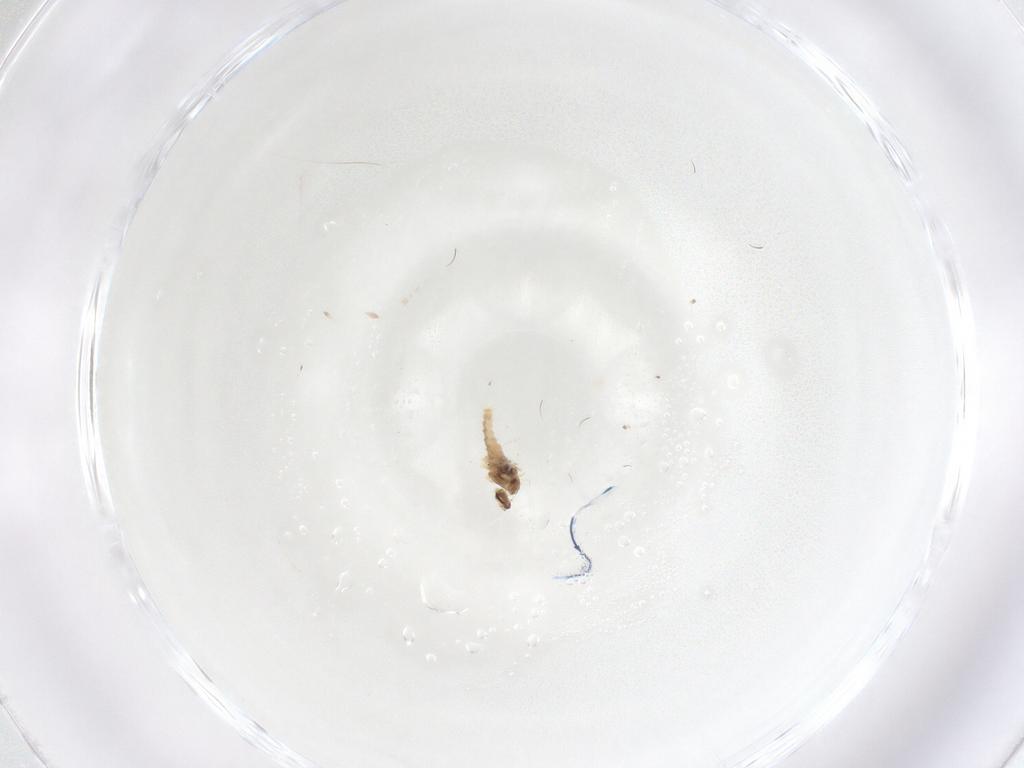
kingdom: Animalia
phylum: Arthropoda
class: Insecta
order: Diptera
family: Cecidomyiidae
